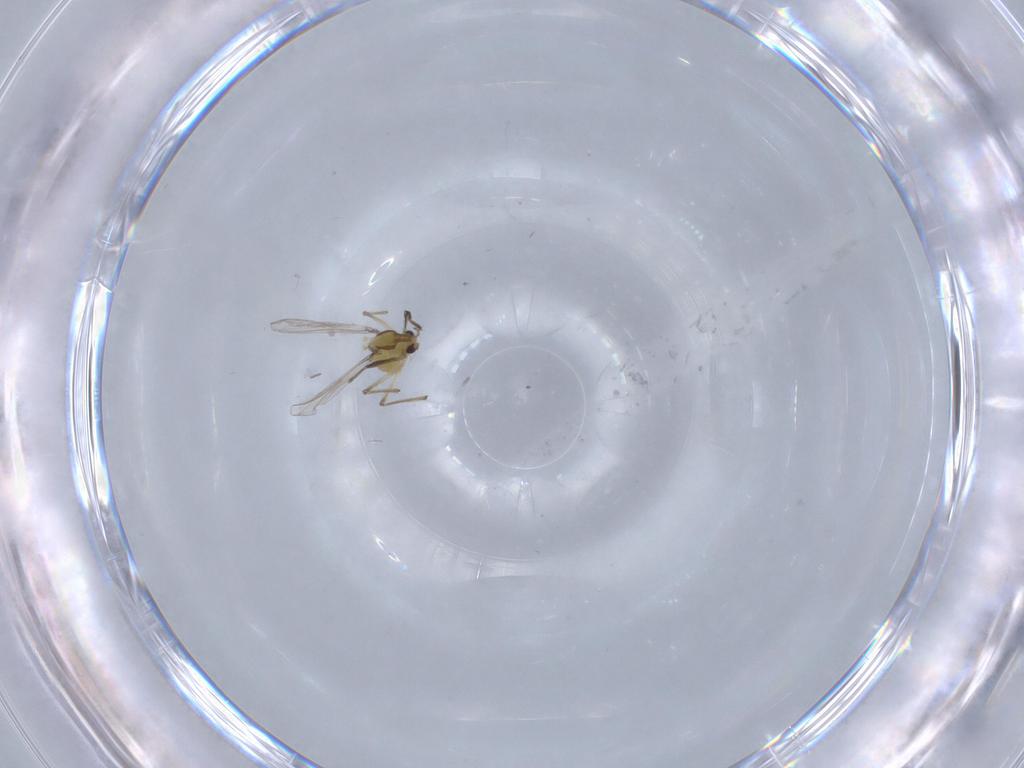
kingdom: Animalia
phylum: Arthropoda
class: Insecta
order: Diptera
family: Chironomidae
